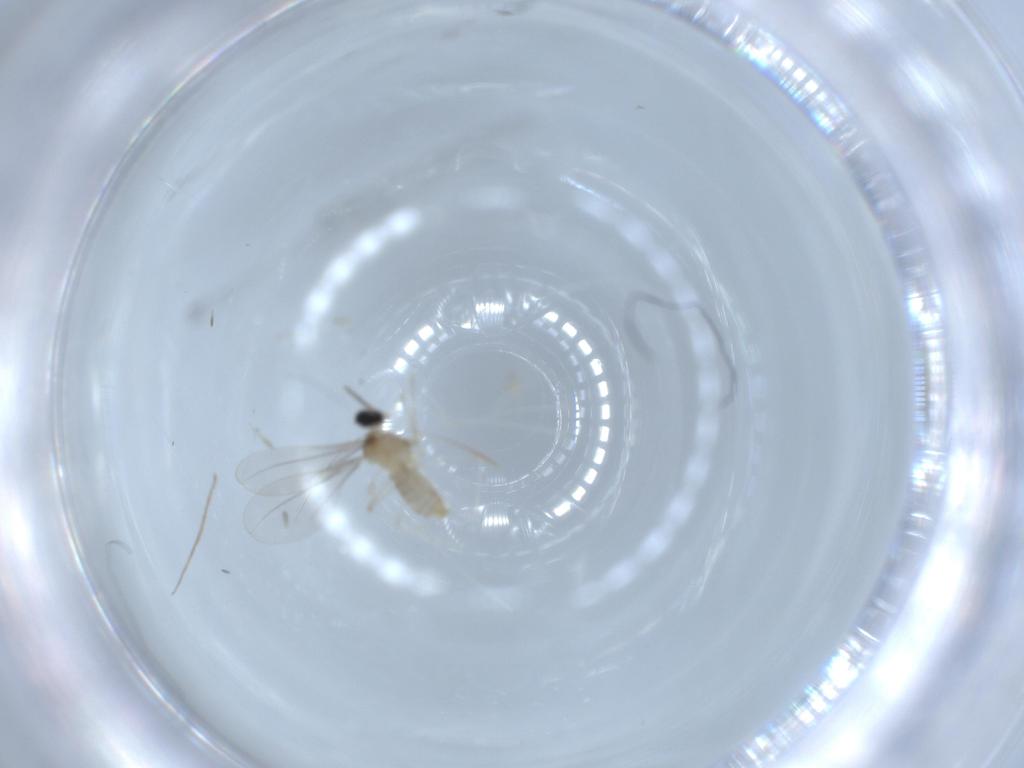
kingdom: Animalia
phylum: Arthropoda
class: Insecta
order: Diptera
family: Cecidomyiidae
